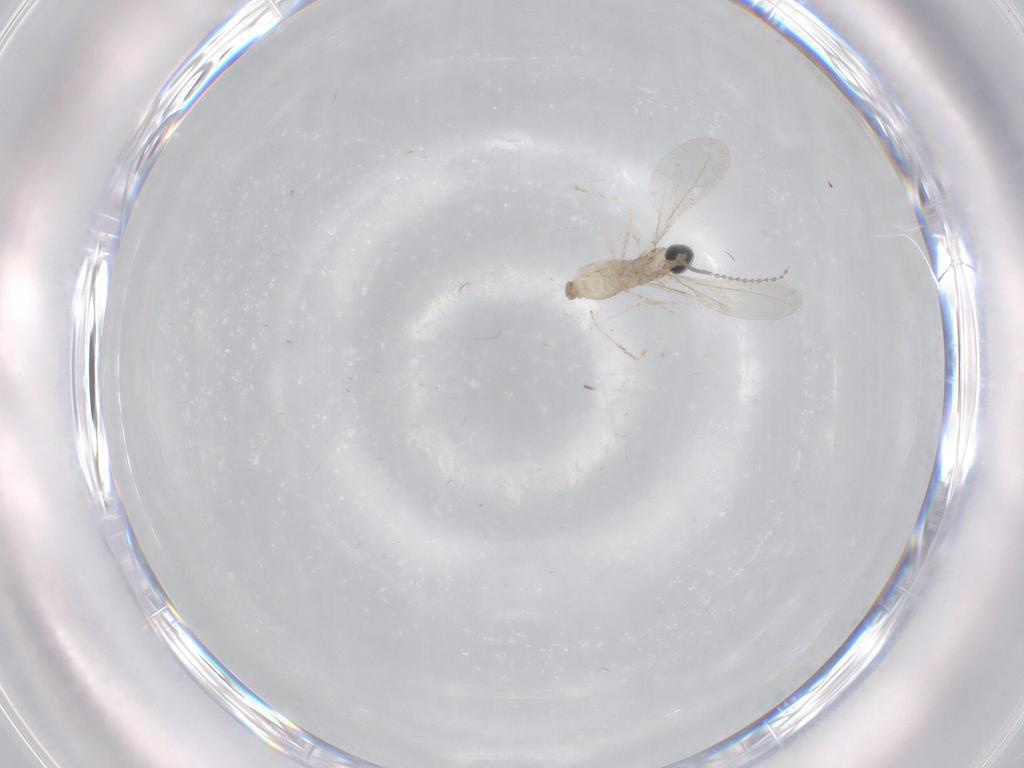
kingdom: Animalia
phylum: Arthropoda
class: Insecta
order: Diptera
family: Cecidomyiidae
